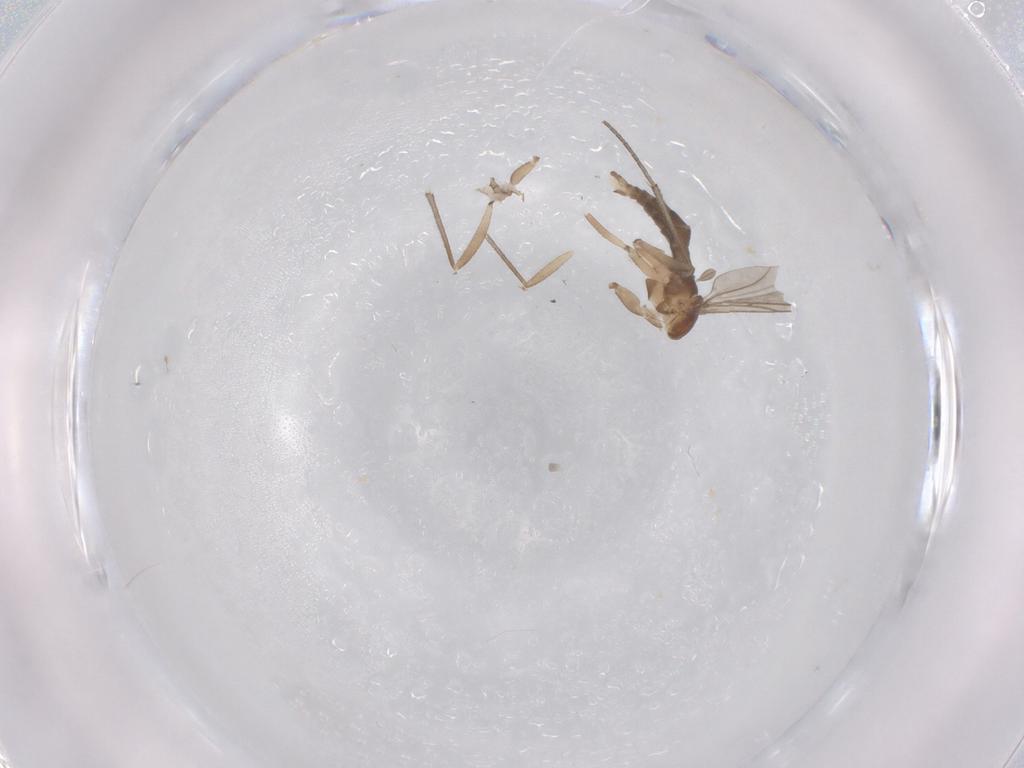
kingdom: Animalia
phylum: Arthropoda
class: Insecta
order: Diptera
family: Sciaridae
